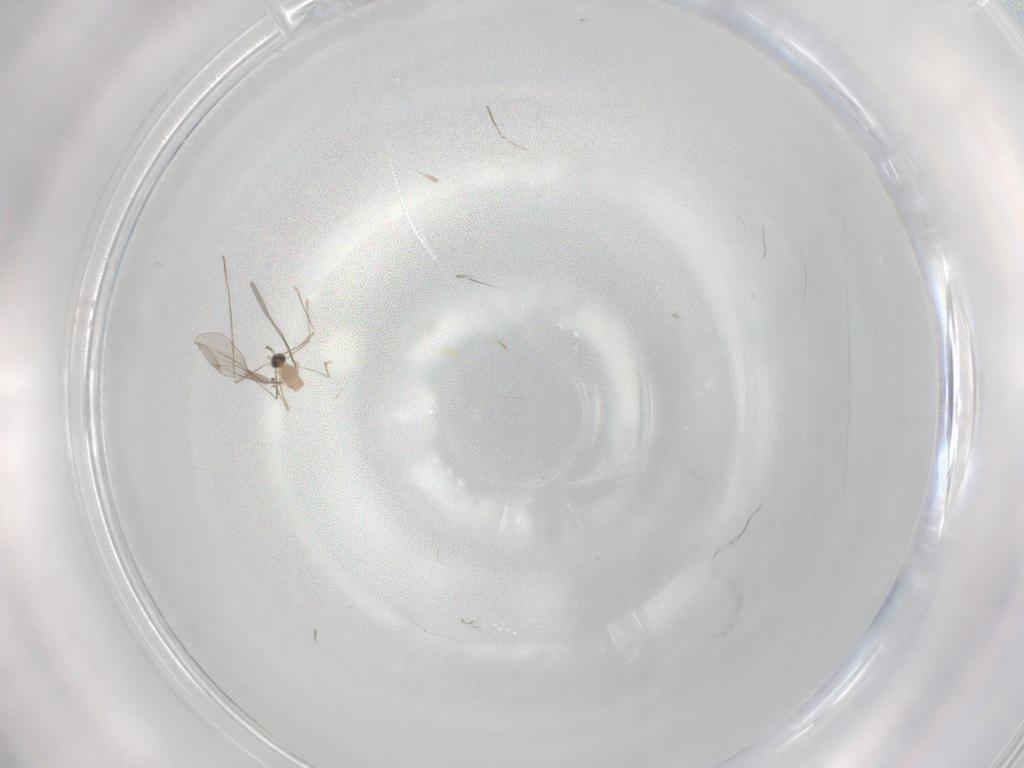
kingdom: Animalia
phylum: Arthropoda
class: Insecta
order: Diptera
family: Cecidomyiidae
